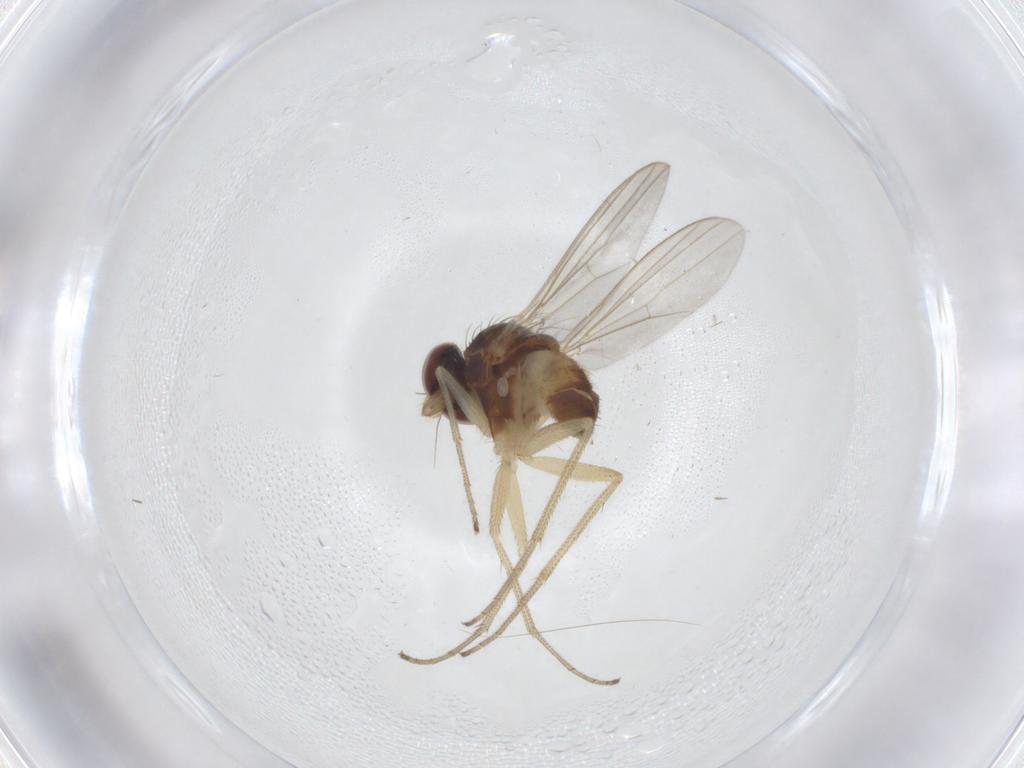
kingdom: Animalia
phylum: Arthropoda
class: Insecta
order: Diptera
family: Dolichopodidae
